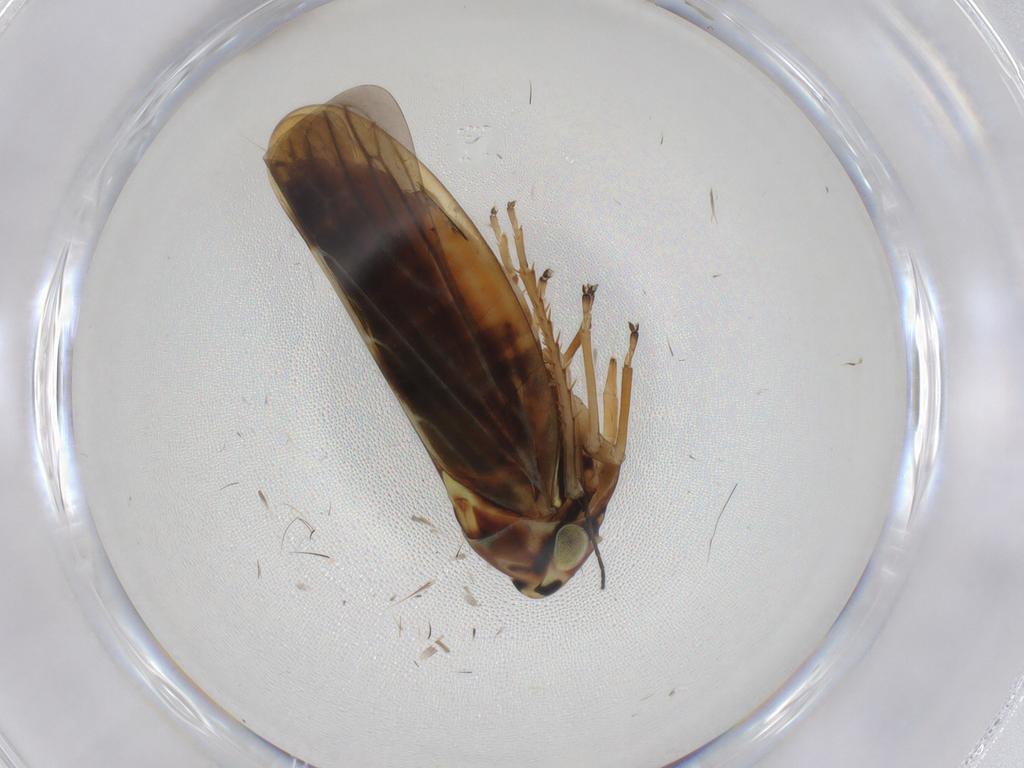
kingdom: Animalia
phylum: Arthropoda
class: Insecta
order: Hemiptera
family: Cicadellidae
